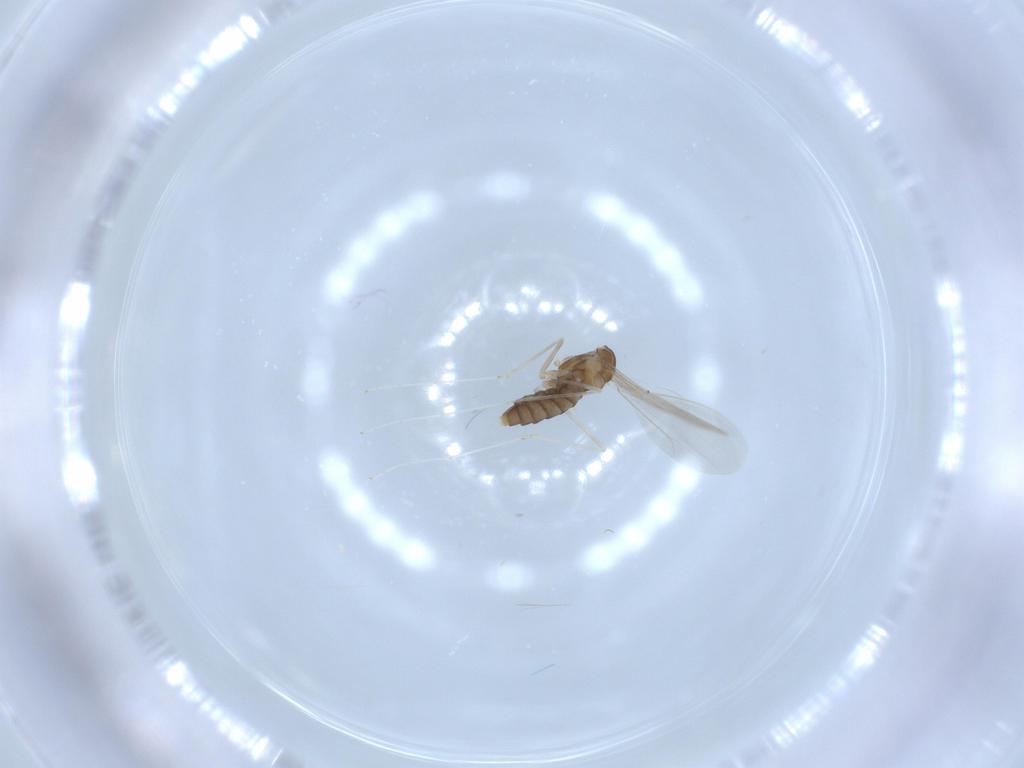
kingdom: Animalia
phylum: Arthropoda
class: Insecta
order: Diptera
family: Cecidomyiidae
